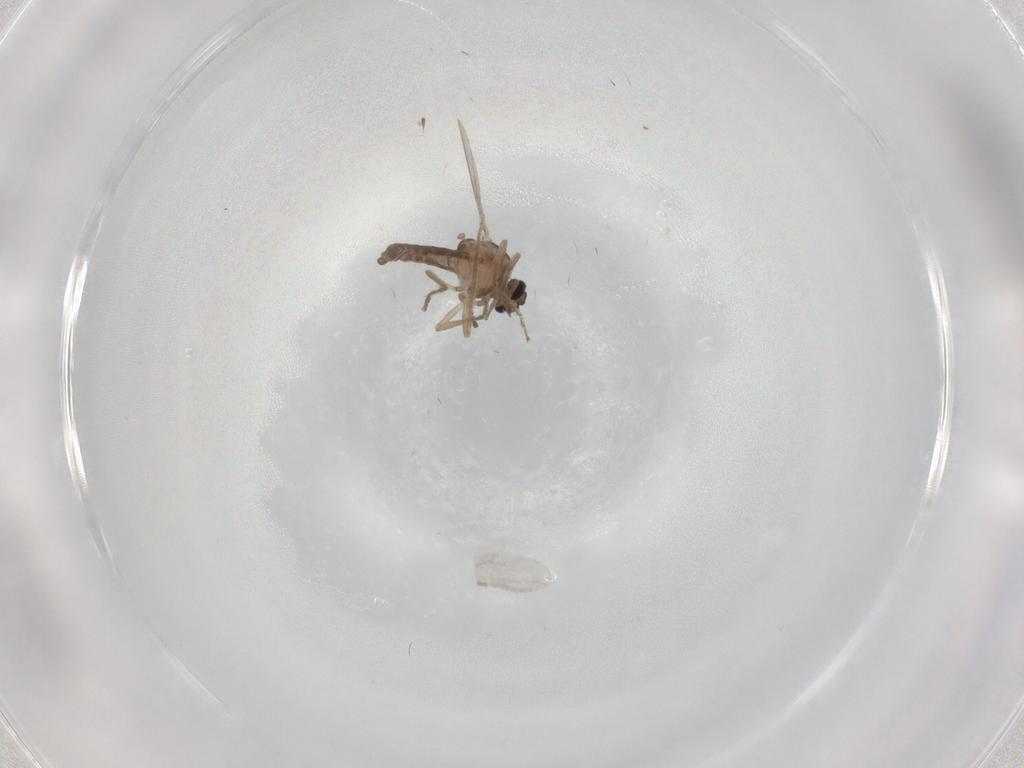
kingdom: Animalia
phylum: Arthropoda
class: Insecta
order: Diptera
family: Ceratopogonidae
